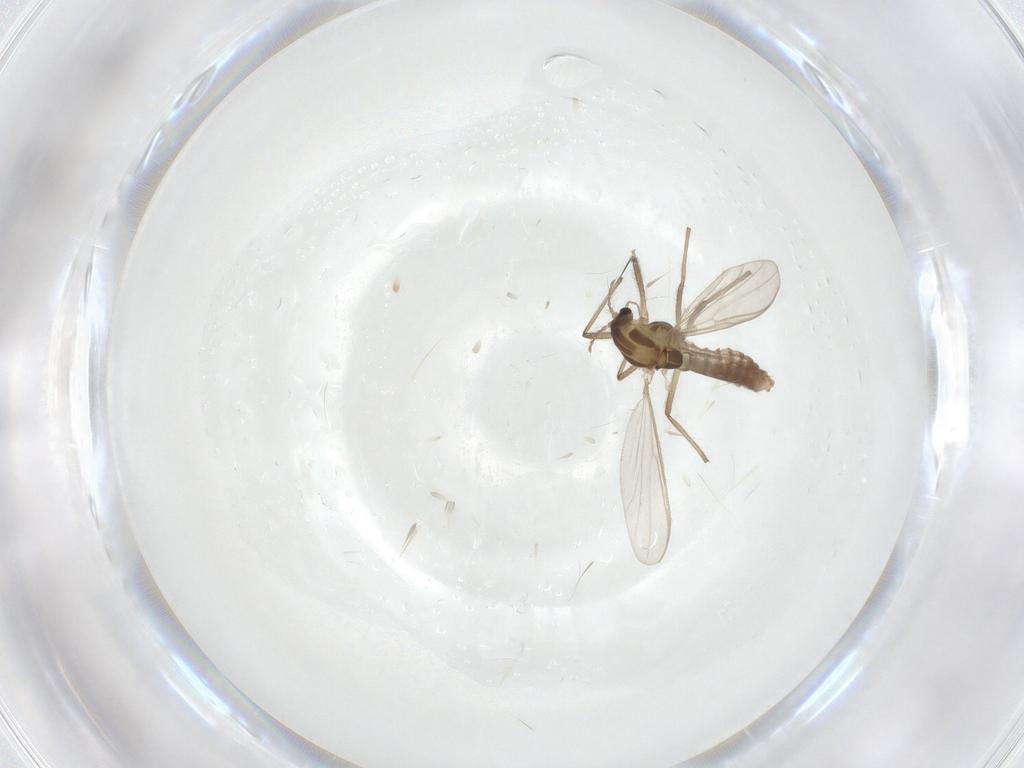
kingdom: Animalia
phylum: Arthropoda
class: Insecta
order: Diptera
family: Chironomidae
